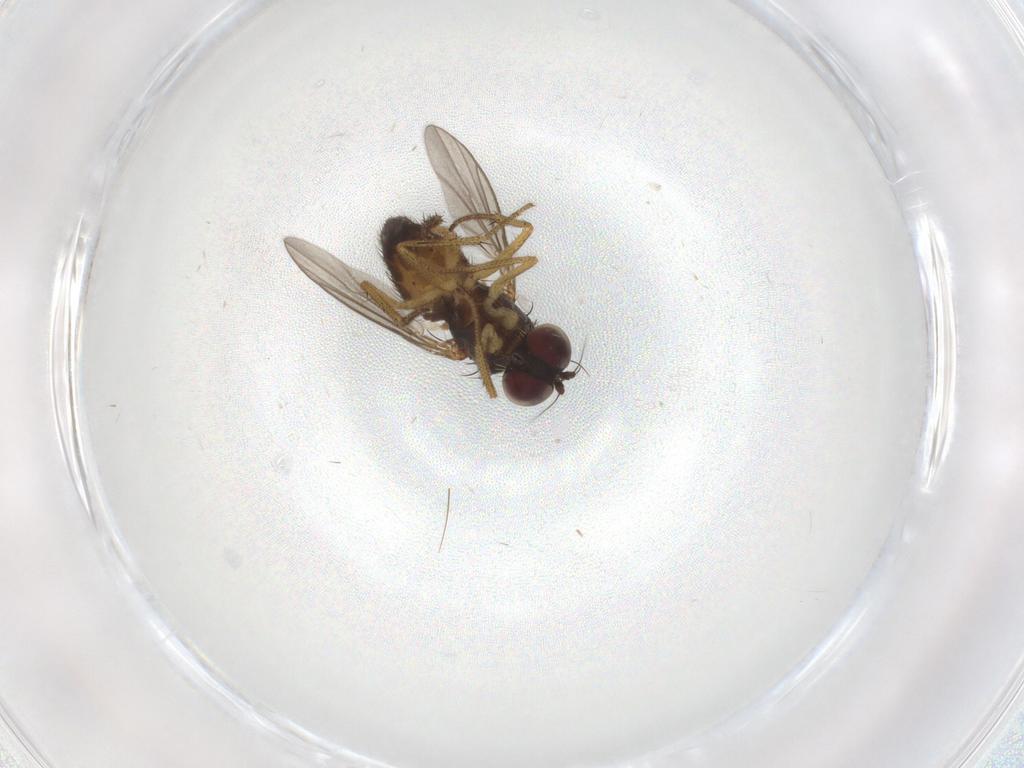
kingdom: Animalia
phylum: Arthropoda
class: Insecta
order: Diptera
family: Dolichopodidae
